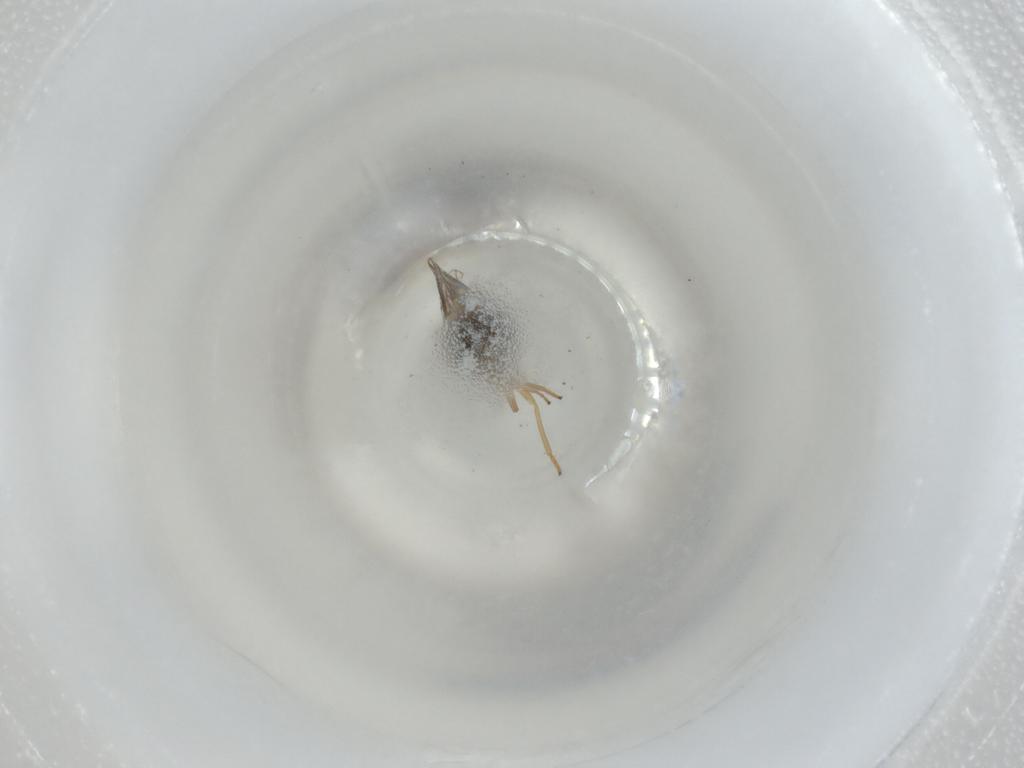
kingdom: Animalia
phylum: Arthropoda
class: Insecta
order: Hemiptera
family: Delphacidae
